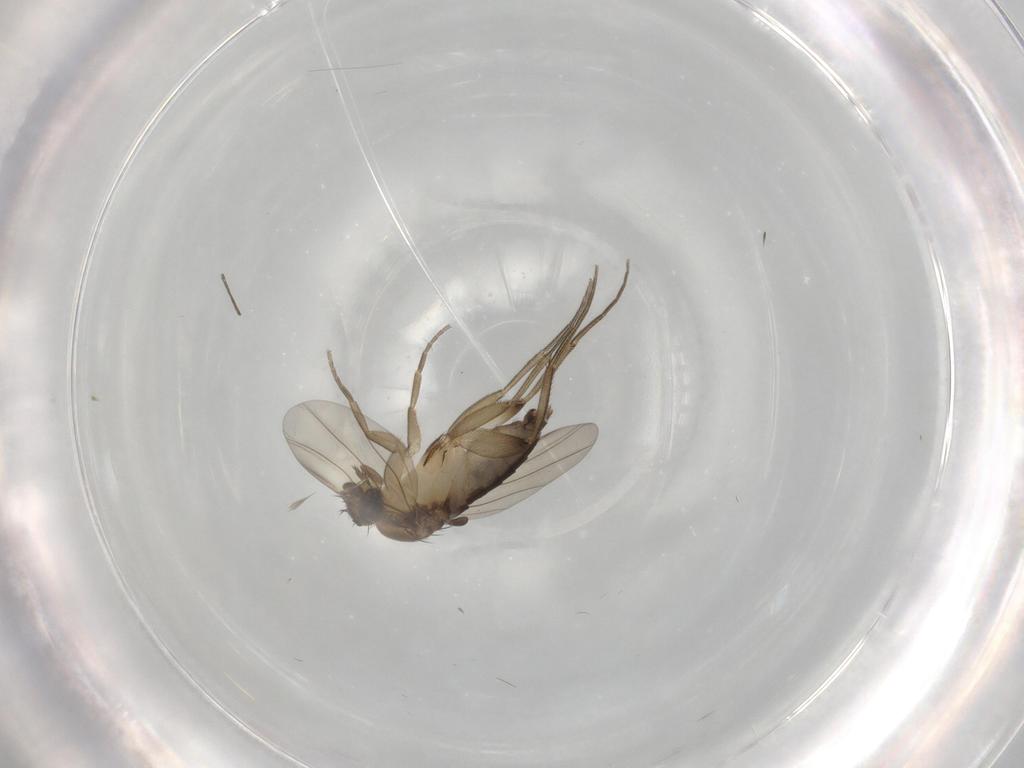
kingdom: Animalia
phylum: Arthropoda
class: Insecta
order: Diptera
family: Phoridae
